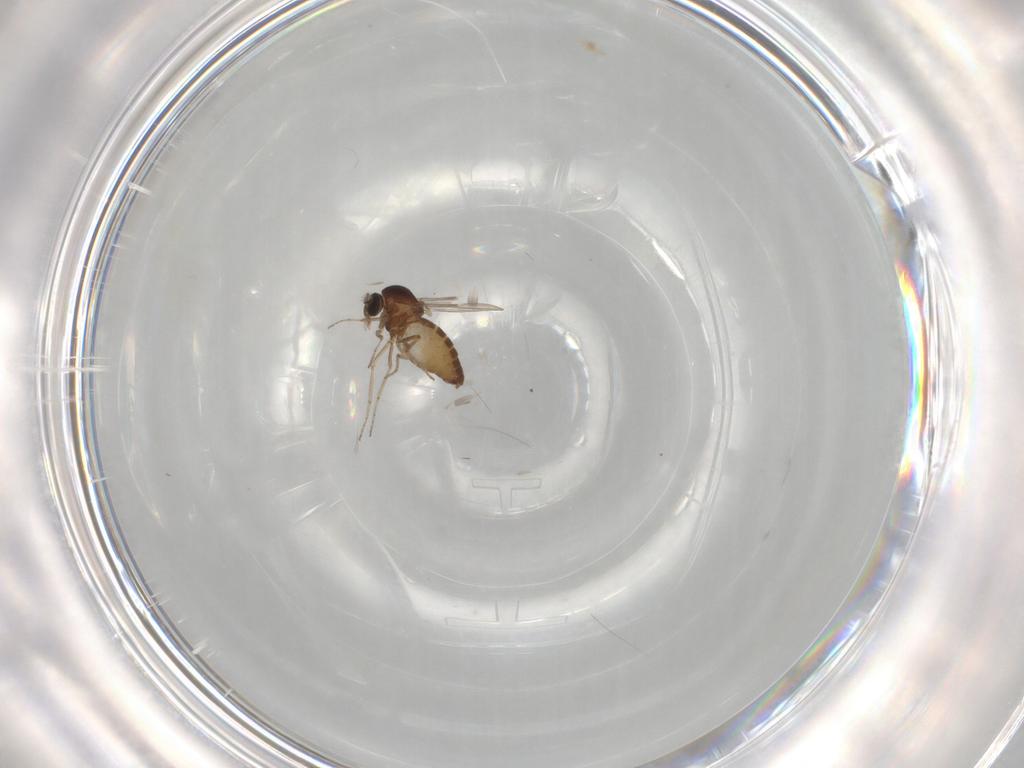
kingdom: Animalia
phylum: Arthropoda
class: Insecta
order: Diptera
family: Ceratopogonidae
